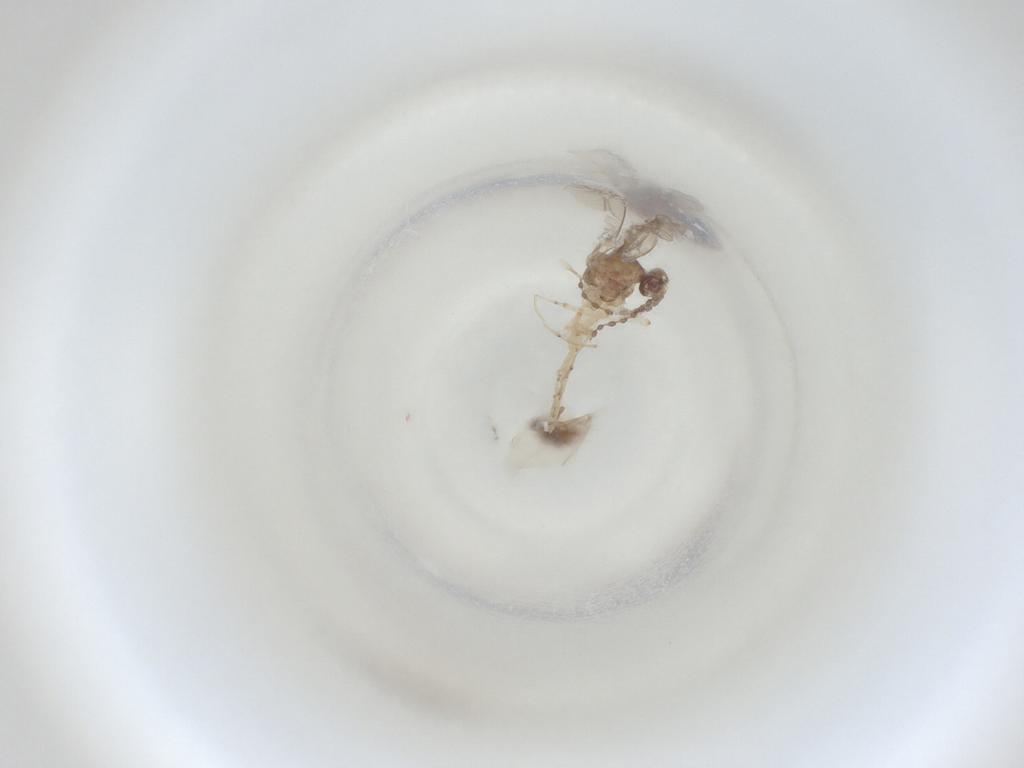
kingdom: Animalia
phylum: Arthropoda
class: Insecta
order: Diptera
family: Cecidomyiidae
